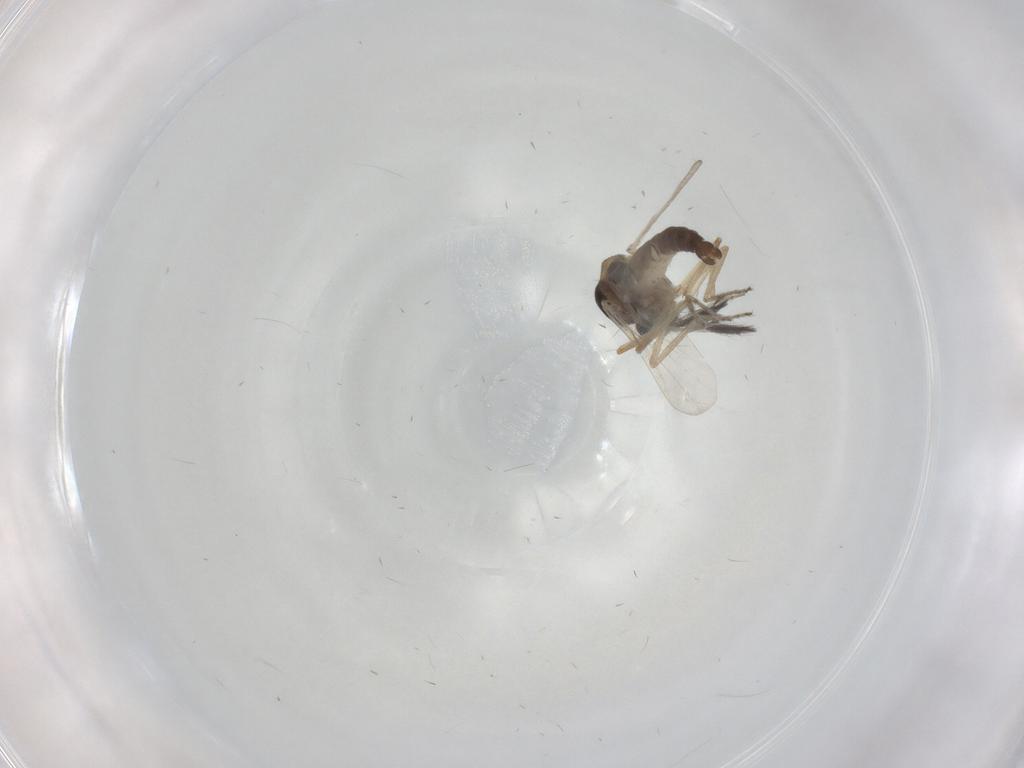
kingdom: Animalia
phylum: Arthropoda
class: Insecta
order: Diptera
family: Ceratopogonidae
